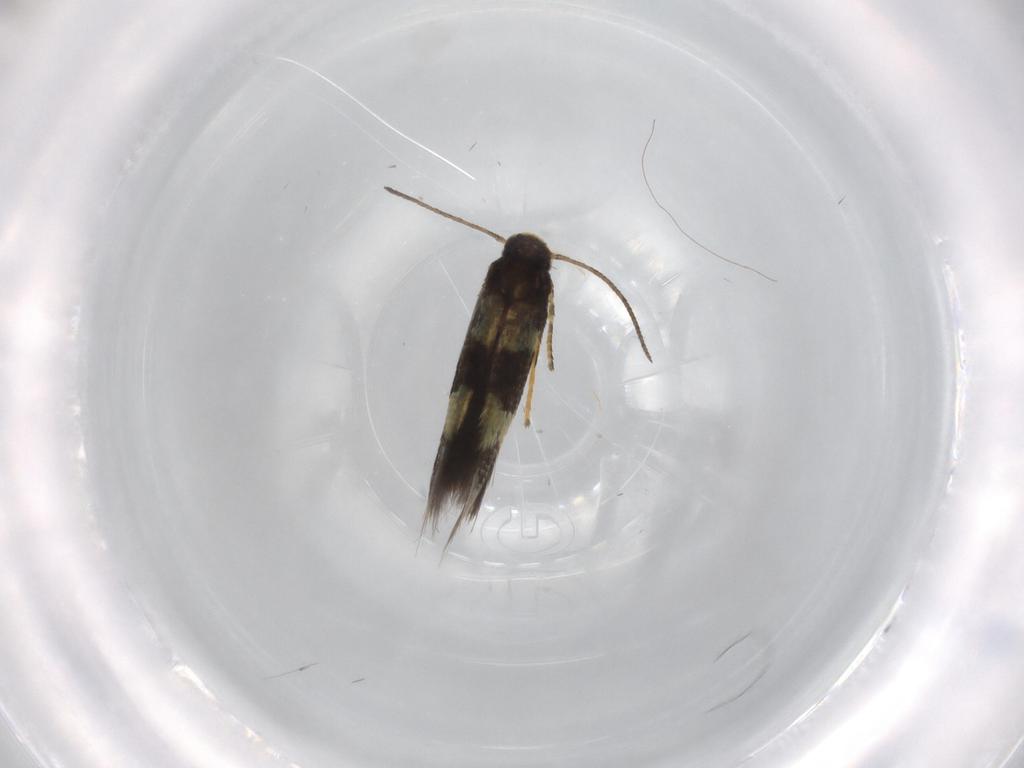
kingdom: Animalia
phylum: Arthropoda
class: Insecta
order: Lepidoptera
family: Heliozelidae
